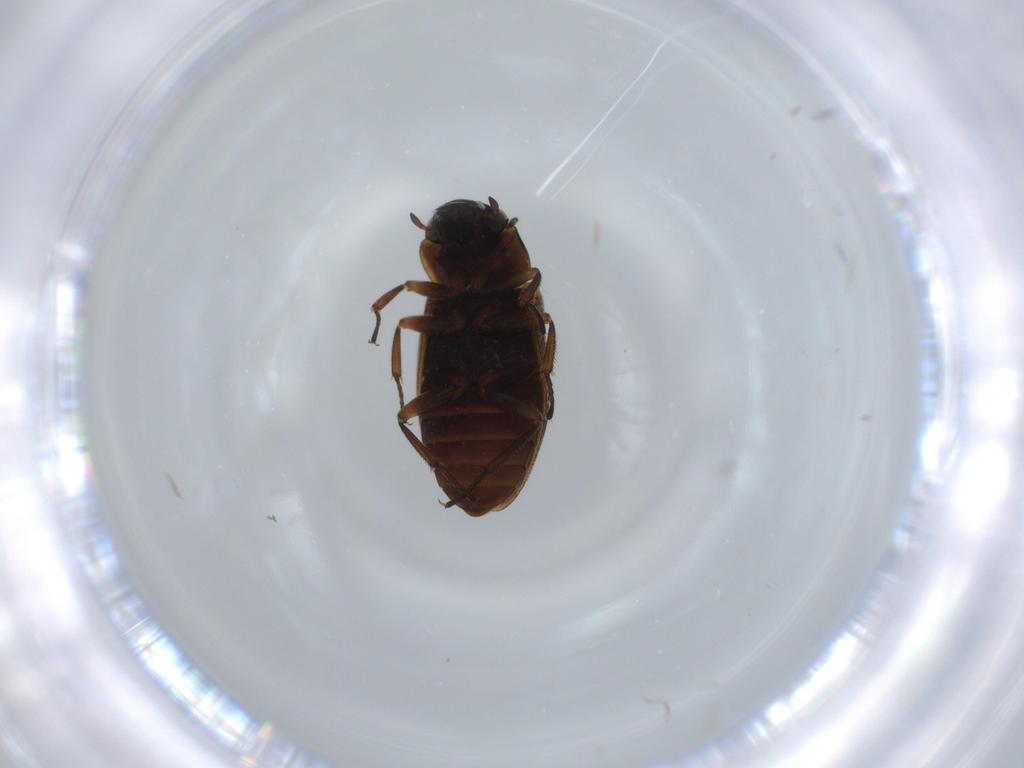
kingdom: Animalia
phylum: Arthropoda
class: Insecta
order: Coleoptera
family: Helophoridae
